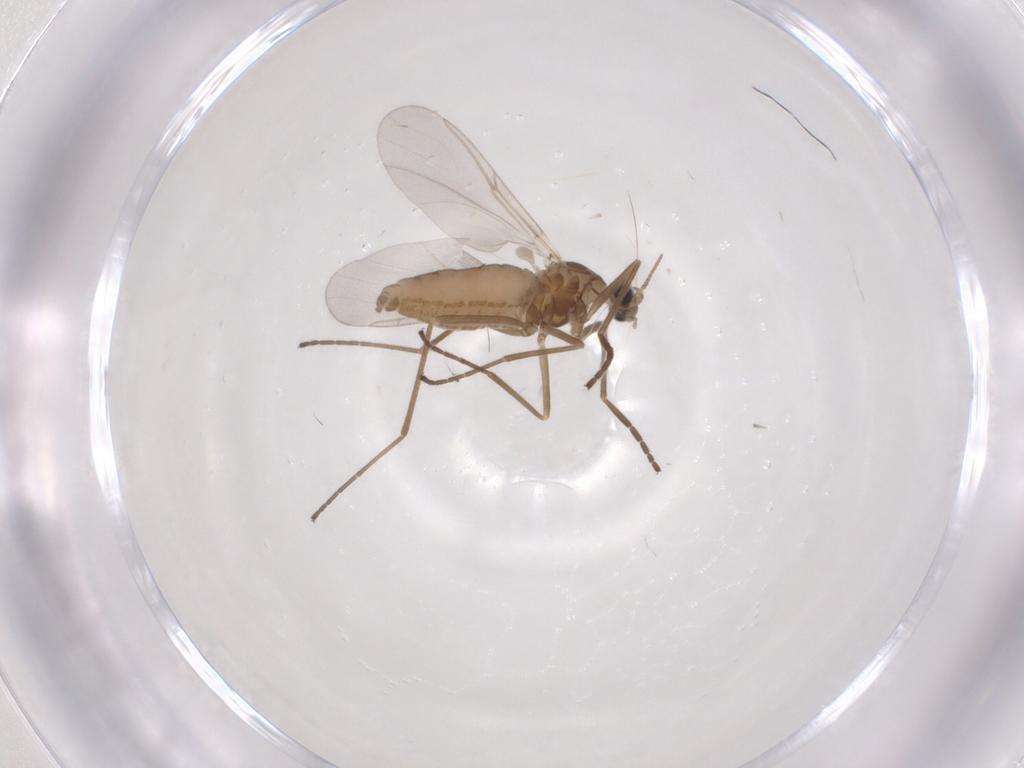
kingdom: Animalia
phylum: Arthropoda
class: Insecta
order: Diptera
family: Cecidomyiidae
